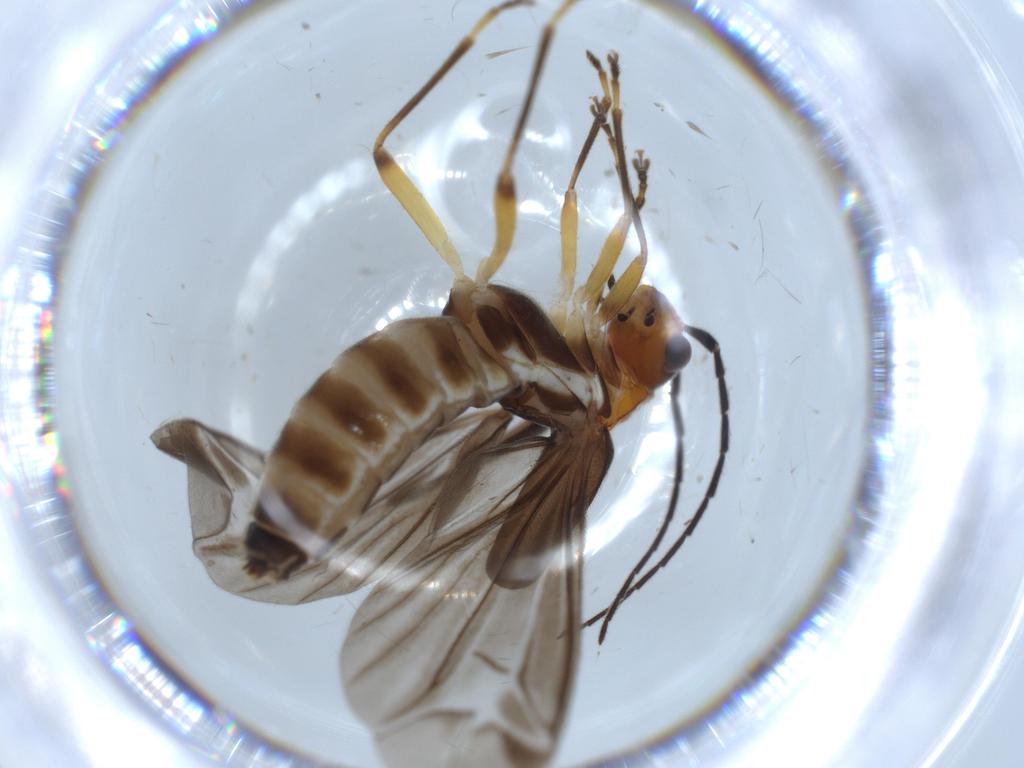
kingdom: Animalia
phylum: Arthropoda
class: Insecta
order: Coleoptera
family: Cantharidae
